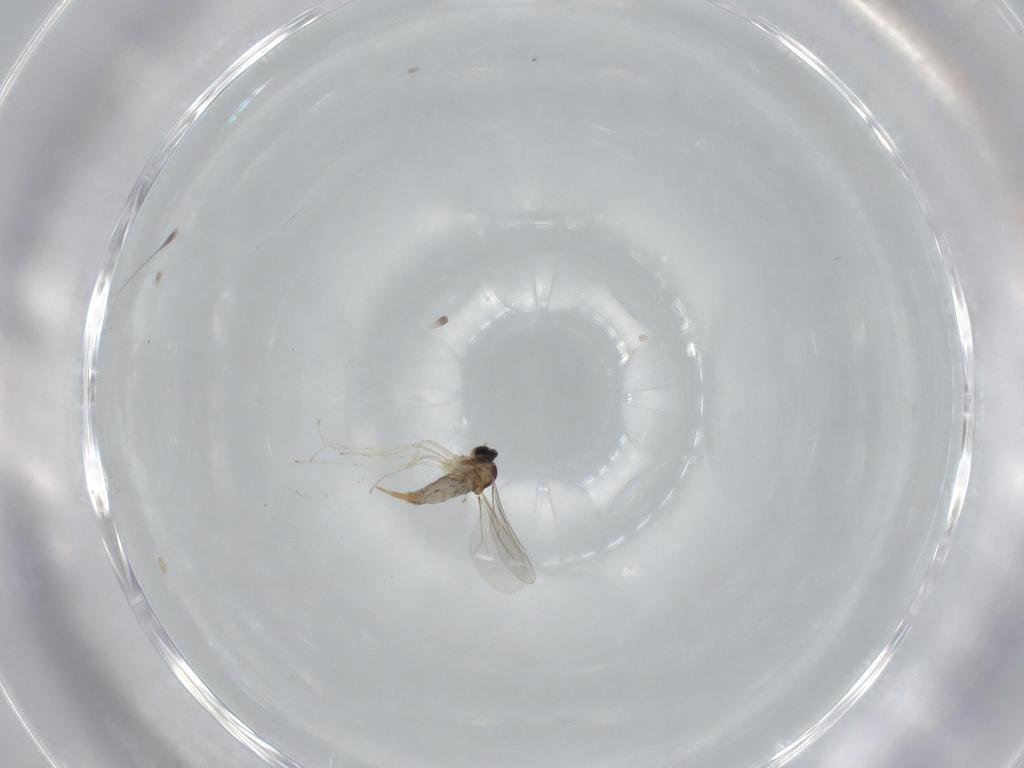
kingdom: Animalia
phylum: Arthropoda
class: Insecta
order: Diptera
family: Cecidomyiidae
